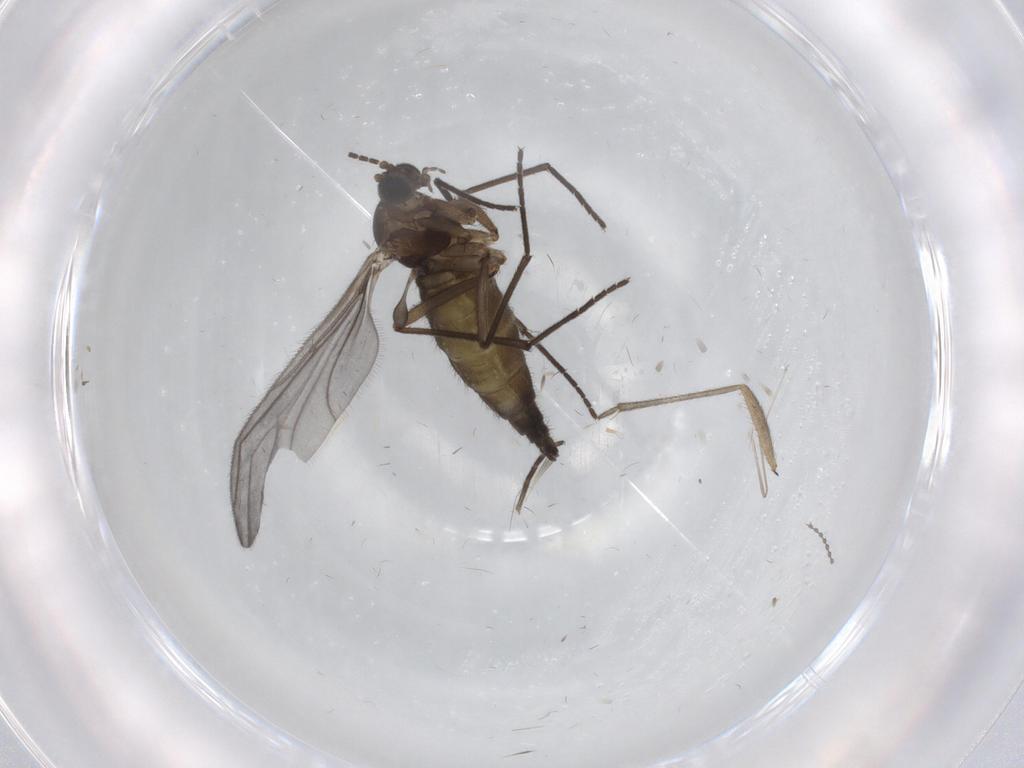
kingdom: Animalia
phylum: Arthropoda
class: Insecta
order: Diptera
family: Sciaridae
